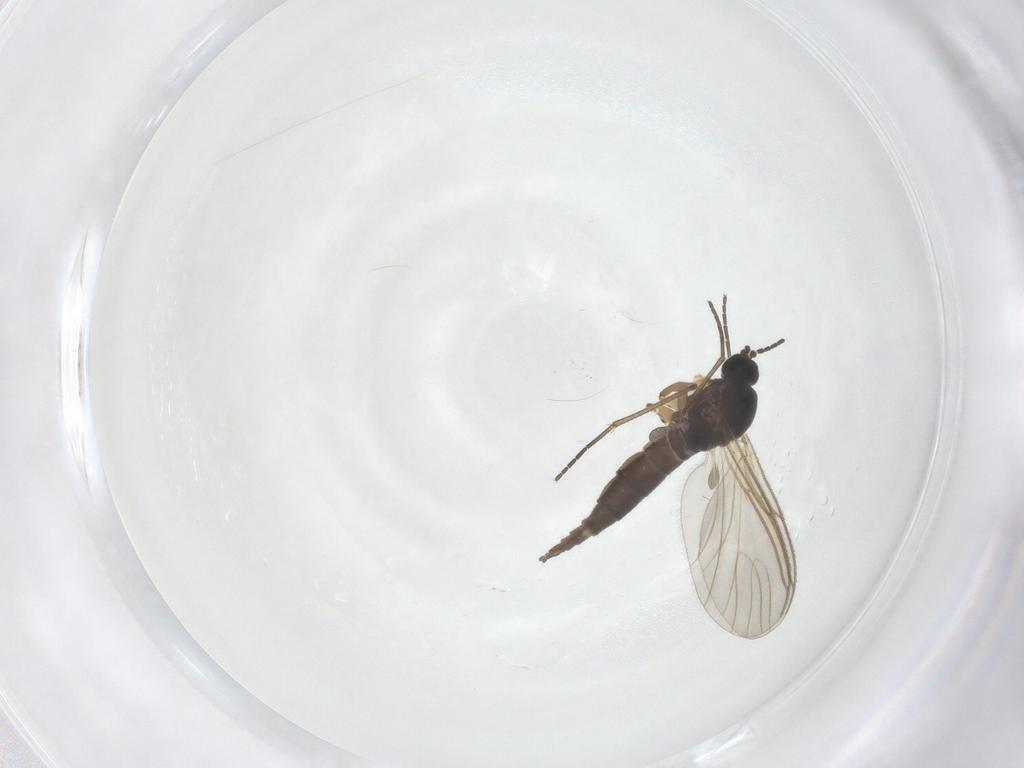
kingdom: Animalia
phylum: Arthropoda
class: Insecta
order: Diptera
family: Sciaridae
